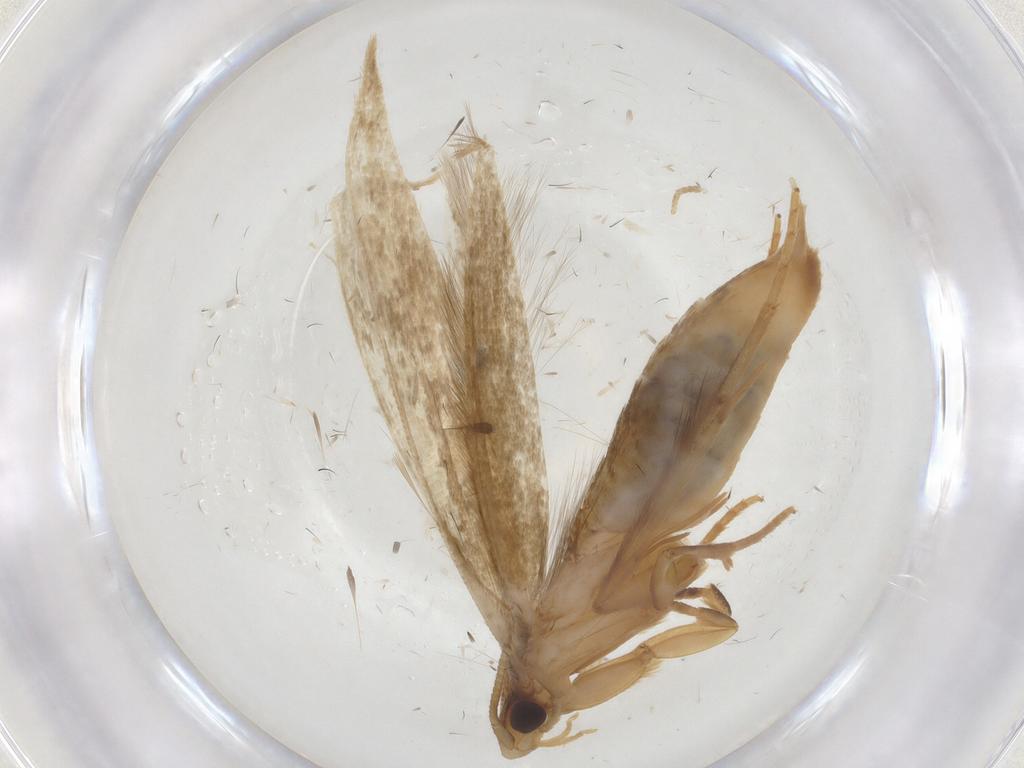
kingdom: Animalia
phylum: Arthropoda
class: Insecta
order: Lepidoptera
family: Tineidae
